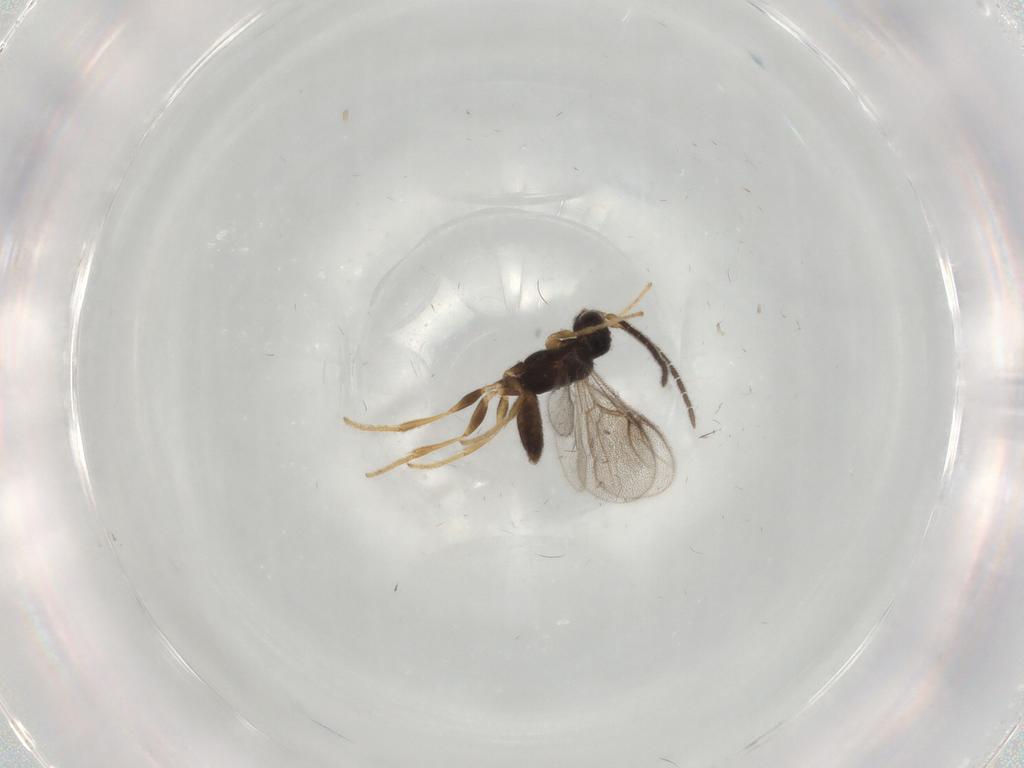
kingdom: Animalia
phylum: Arthropoda
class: Insecta
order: Hymenoptera
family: Dryinidae
